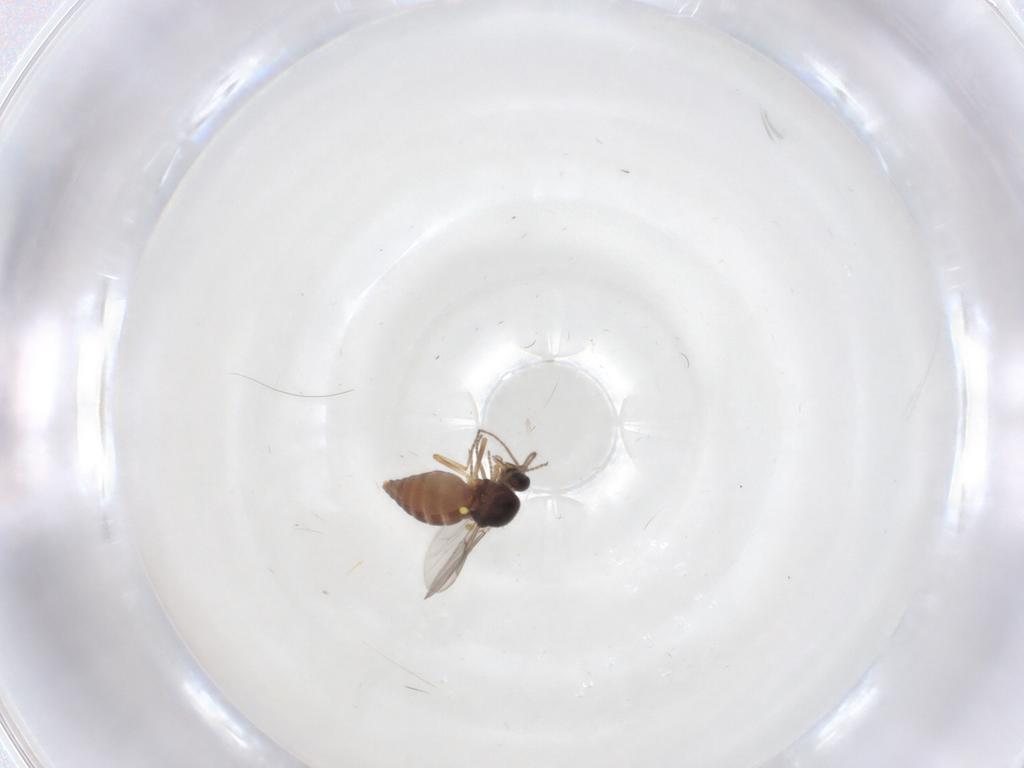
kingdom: Animalia
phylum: Arthropoda
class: Insecta
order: Diptera
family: Ceratopogonidae
